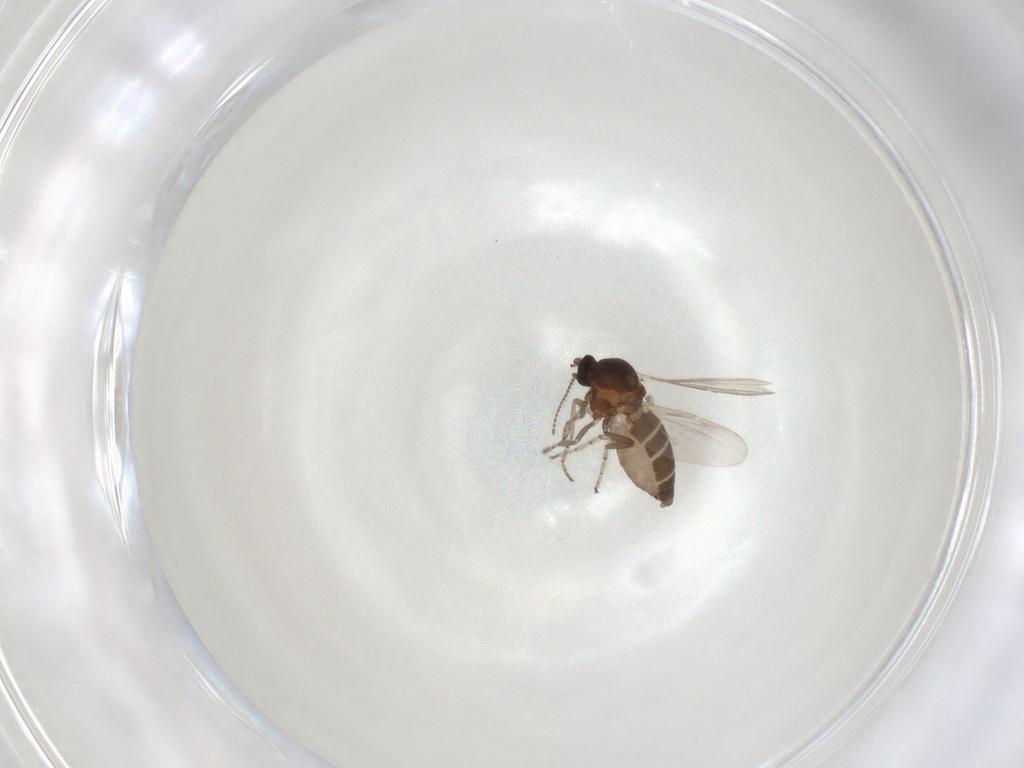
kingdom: Animalia
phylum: Arthropoda
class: Insecta
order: Diptera
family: Ceratopogonidae
